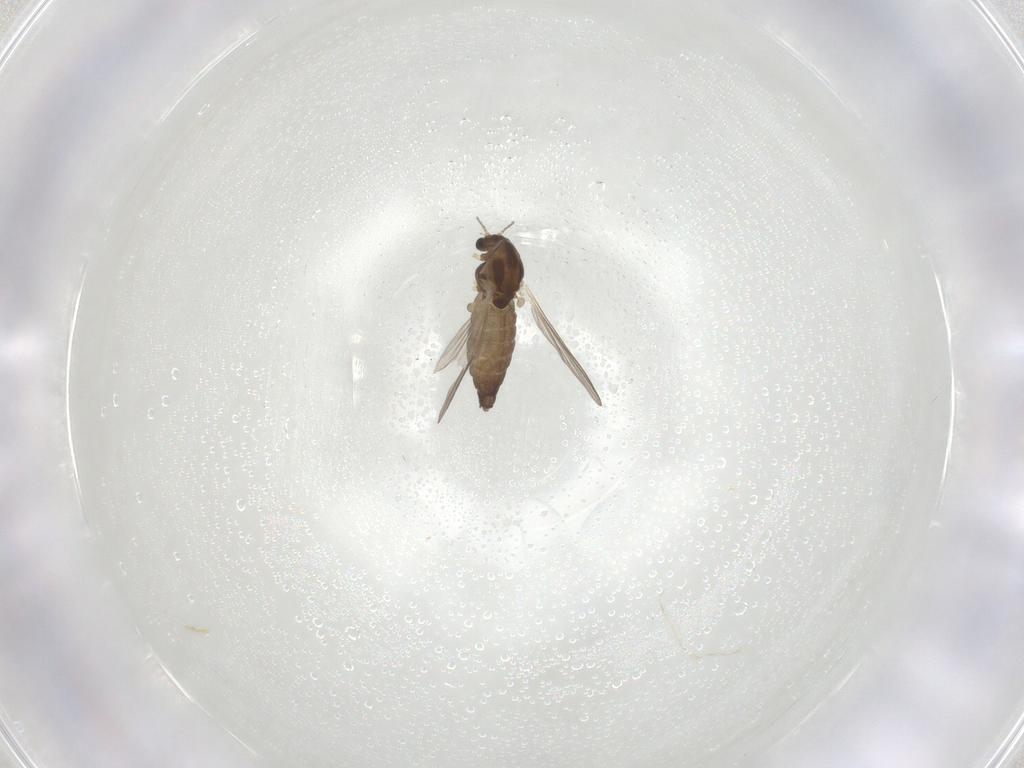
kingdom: Animalia
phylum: Arthropoda
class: Insecta
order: Diptera
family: Chironomidae
